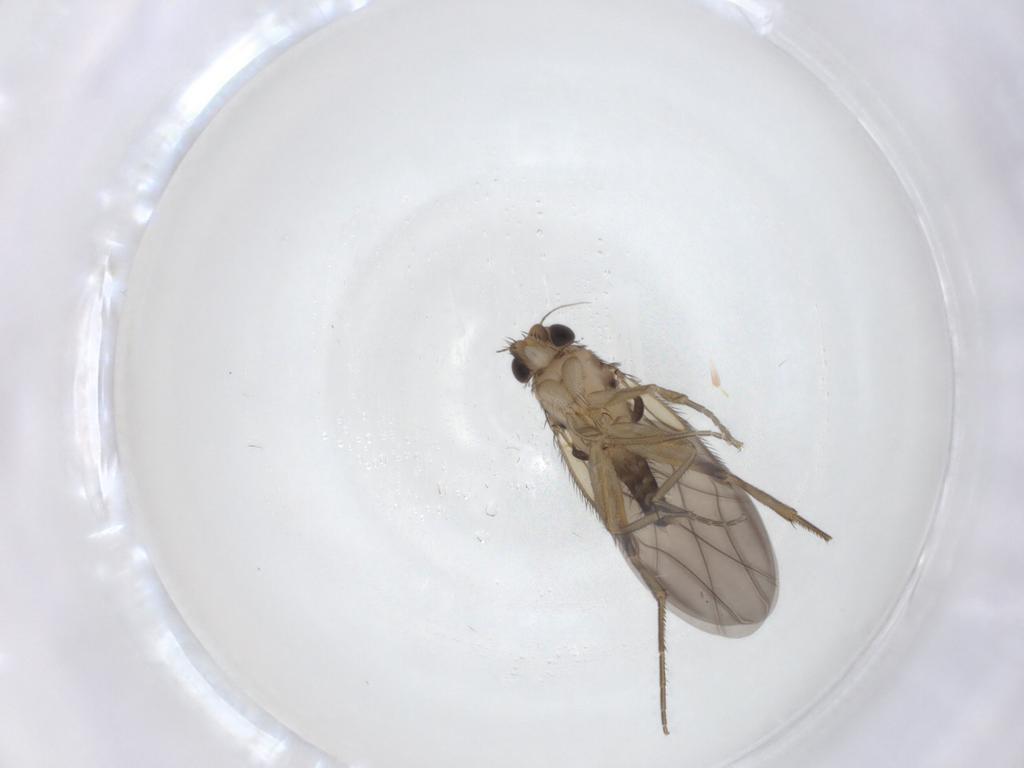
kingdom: Animalia
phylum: Arthropoda
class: Insecta
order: Diptera
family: Phoridae
